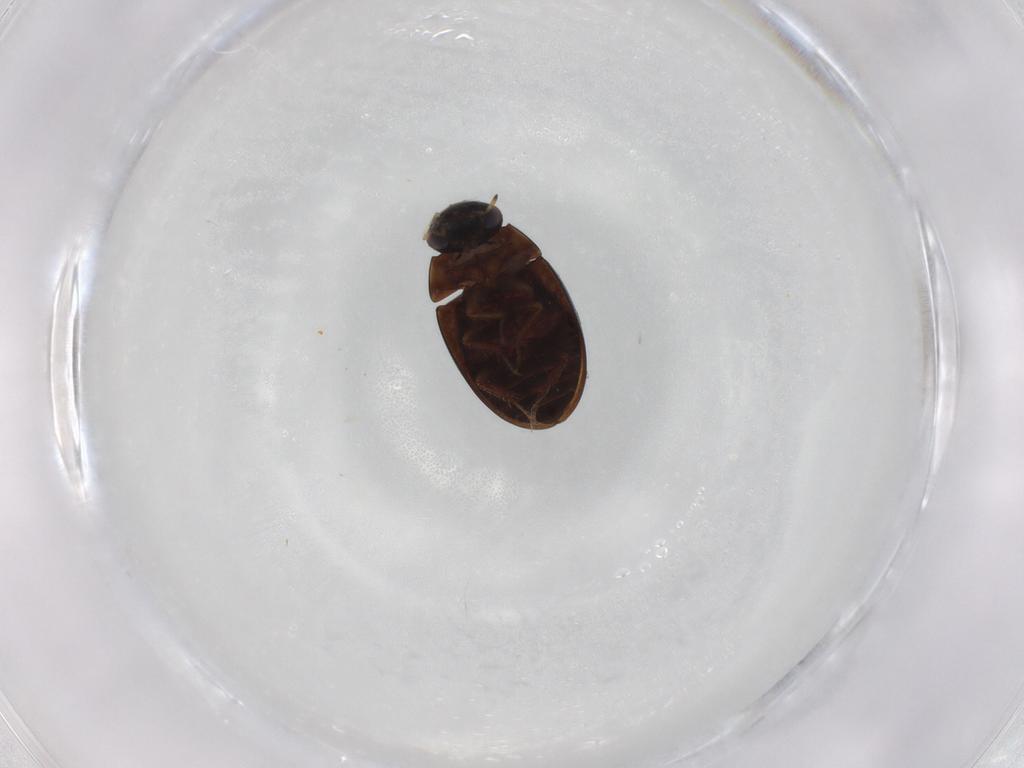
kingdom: Animalia
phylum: Arthropoda
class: Insecta
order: Coleoptera
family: Hydrophilidae
